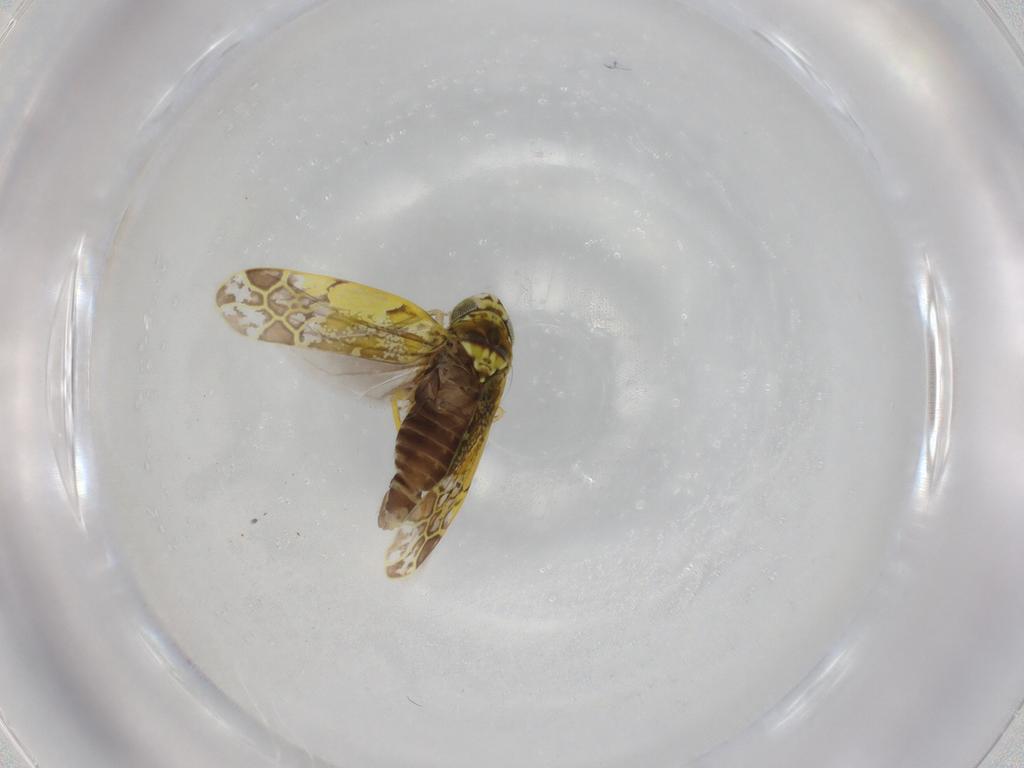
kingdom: Animalia
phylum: Arthropoda
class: Insecta
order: Hemiptera
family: Cicadellidae
